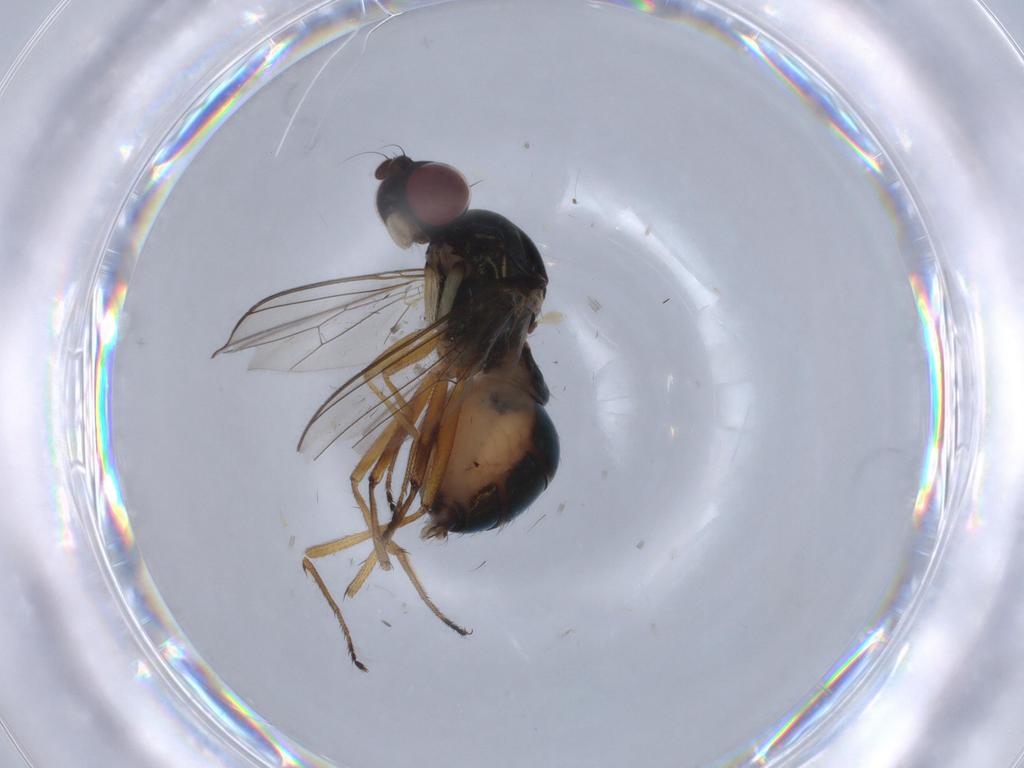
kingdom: Animalia
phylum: Arthropoda
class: Insecta
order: Diptera
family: Sepsidae
